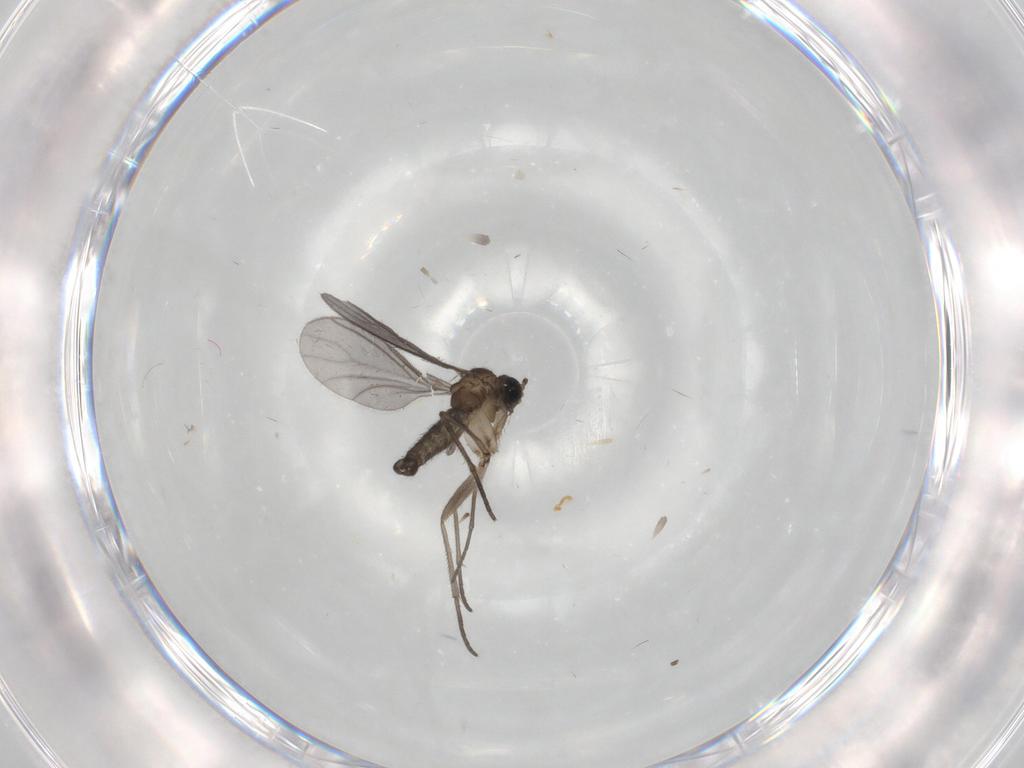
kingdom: Animalia
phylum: Arthropoda
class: Insecta
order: Diptera
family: Sciaridae
